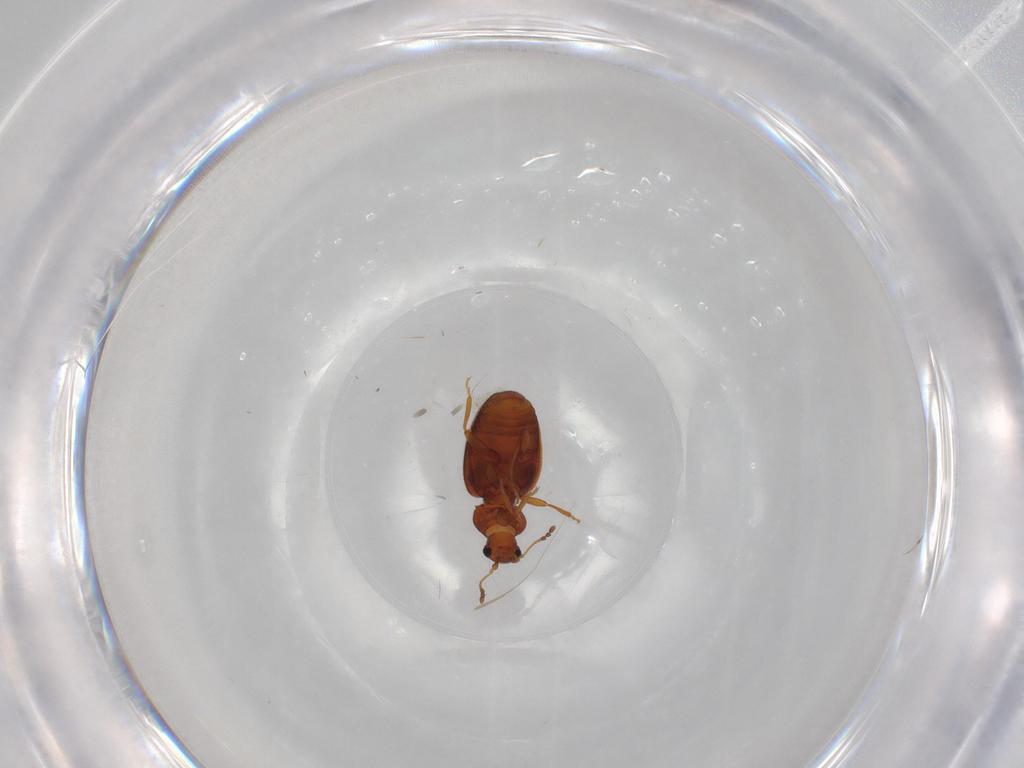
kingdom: Animalia
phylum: Arthropoda
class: Insecta
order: Coleoptera
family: Latridiidae
